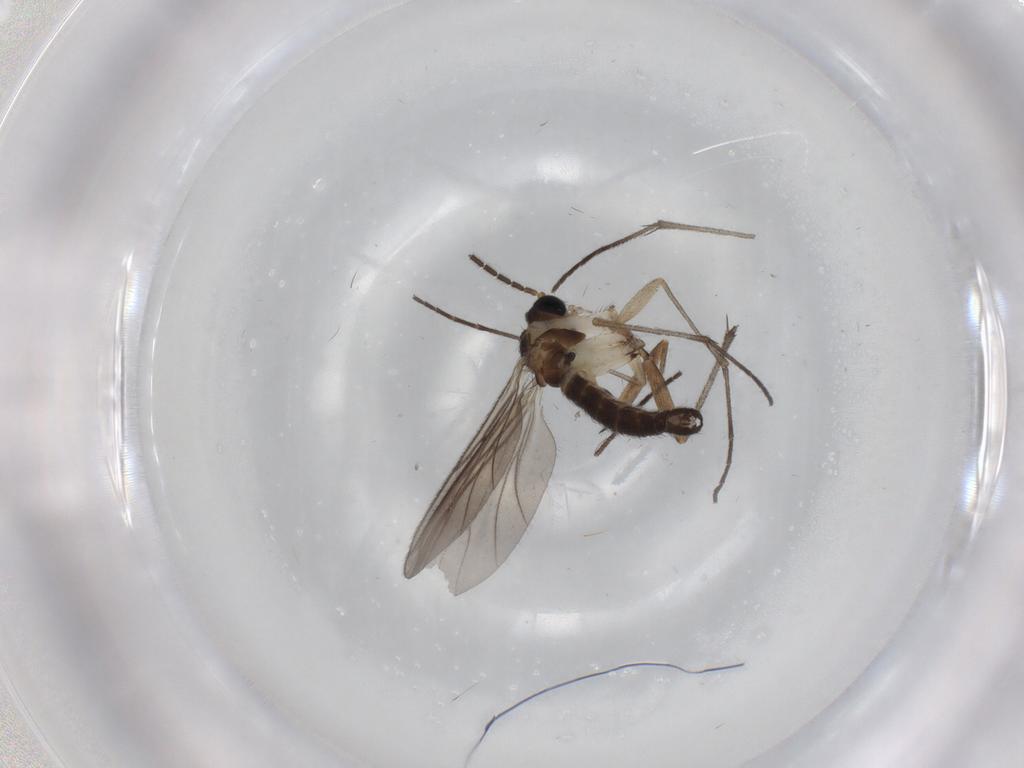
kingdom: Animalia
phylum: Arthropoda
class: Insecta
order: Diptera
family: Sciaridae
